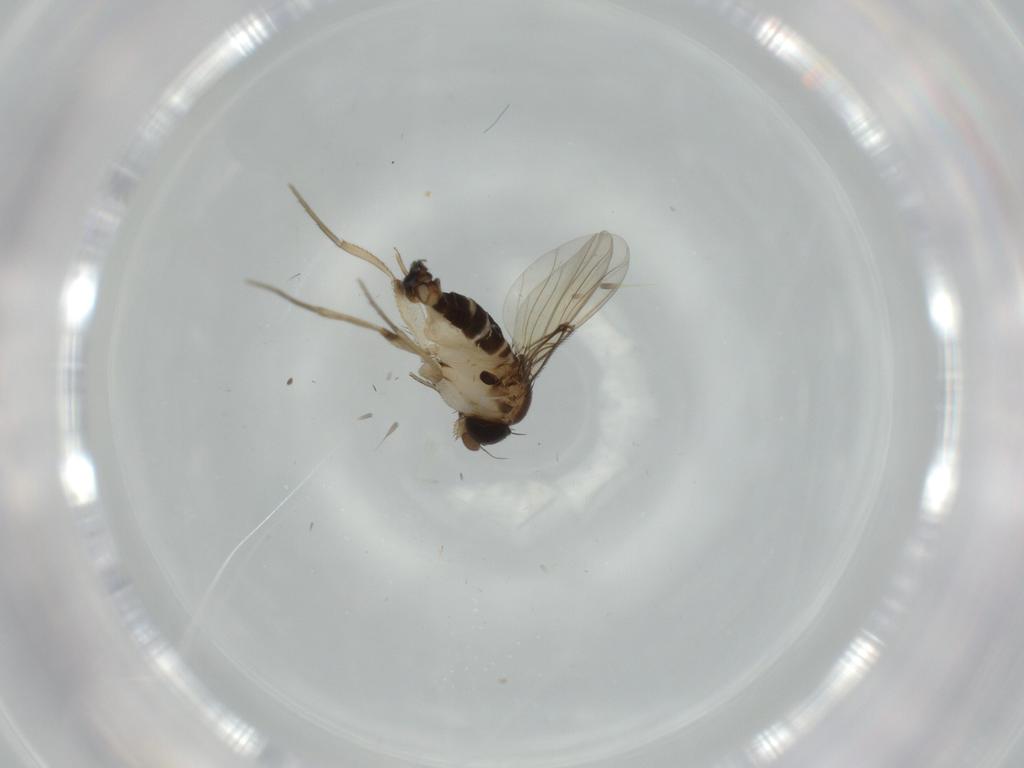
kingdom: Animalia
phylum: Arthropoda
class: Insecta
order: Diptera
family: Phoridae
